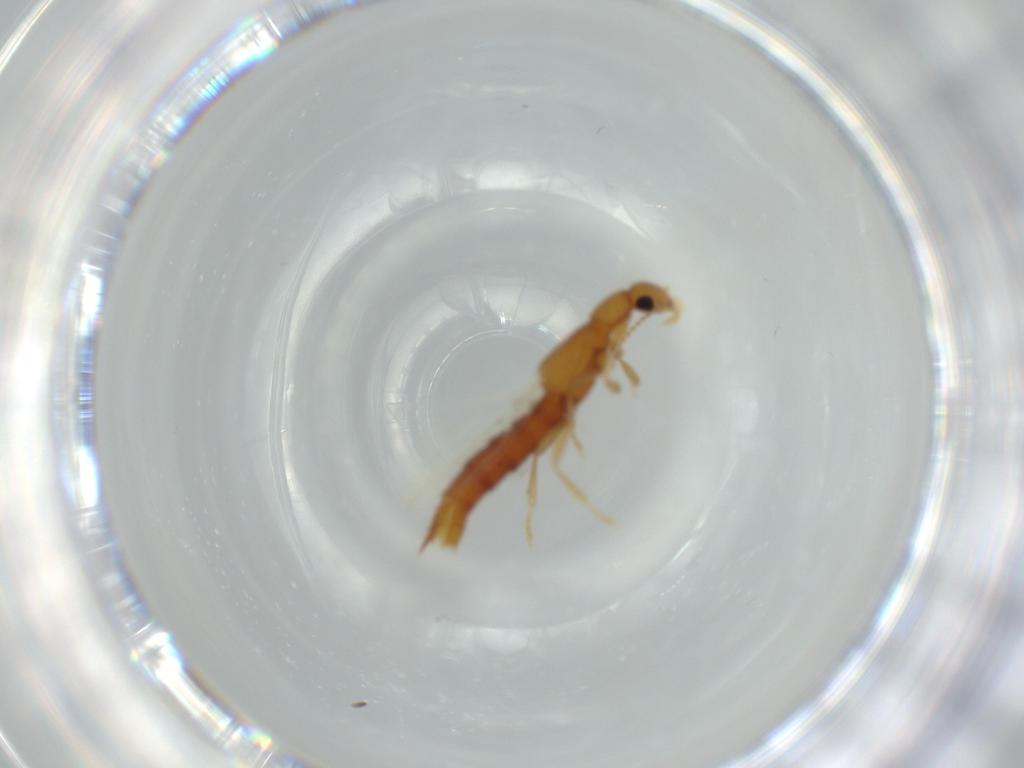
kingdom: Animalia
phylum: Arthropoda
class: Insecta
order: Coleoptera
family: Staphylinidae
